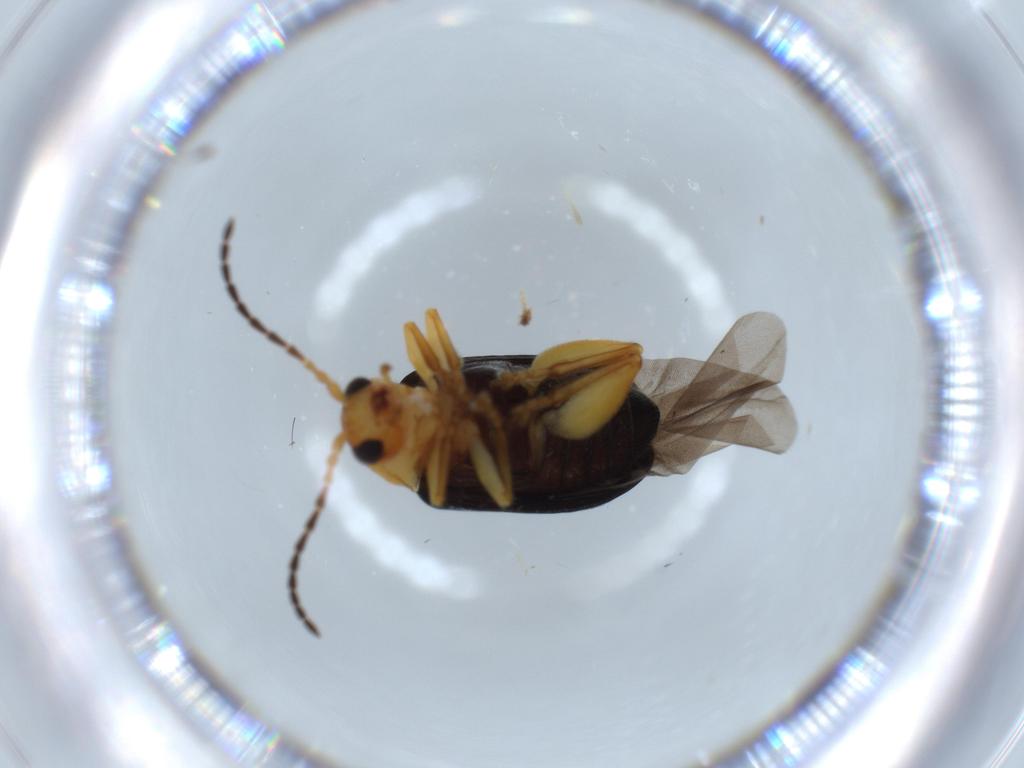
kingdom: Animalia
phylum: Arthropoda
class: Insecta
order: Coleoptera
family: Chrysomelidae
